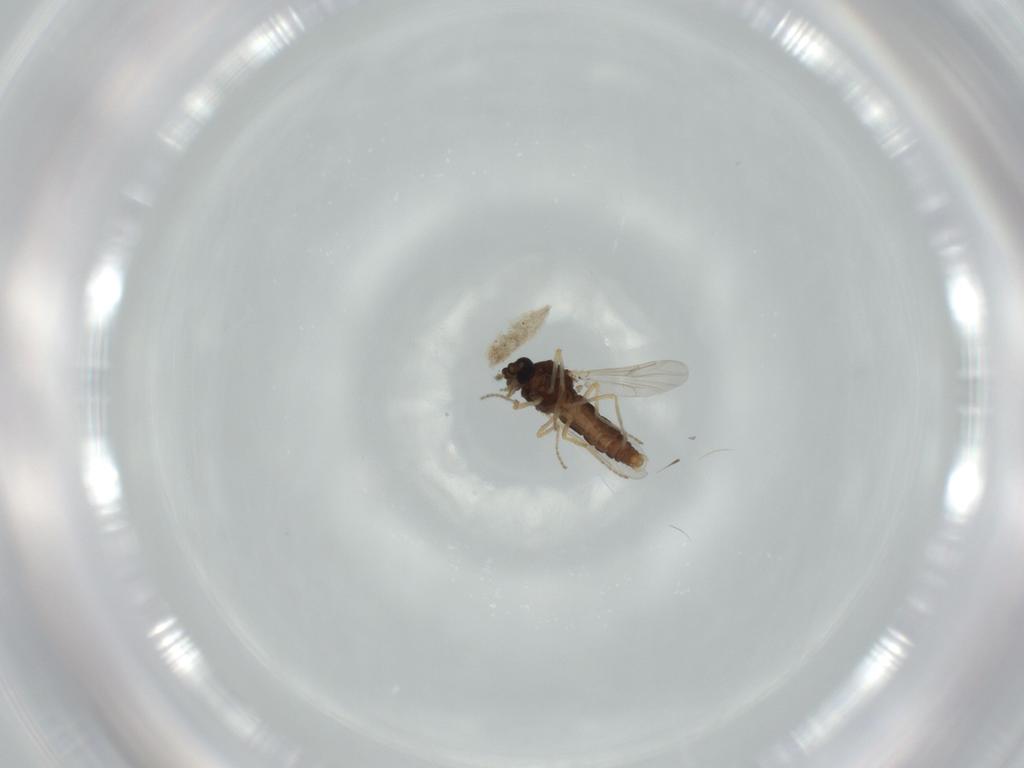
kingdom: Animalia
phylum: Arthropoda
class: Insecta
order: Diptera
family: Ceratopogonidae
